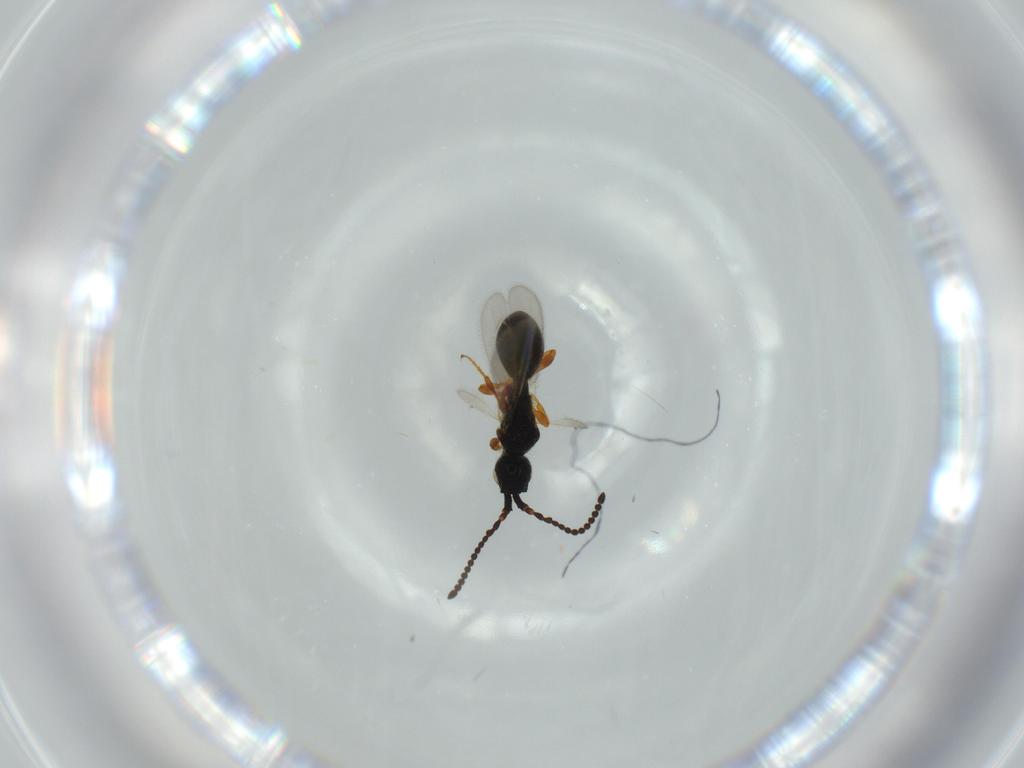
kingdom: Animalia
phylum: Arthropoda
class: Insecta
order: Hymenoptera
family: Diapriidae
